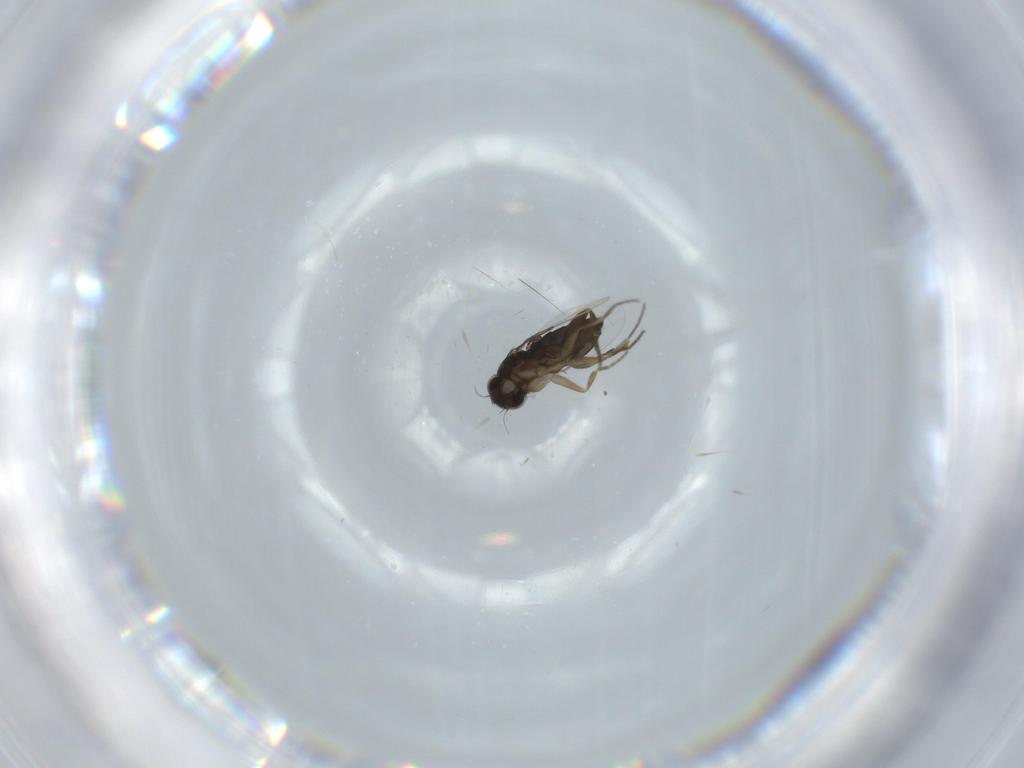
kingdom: Animalia
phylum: Arthropoda
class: Insecta
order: Diptera
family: Phoridae
